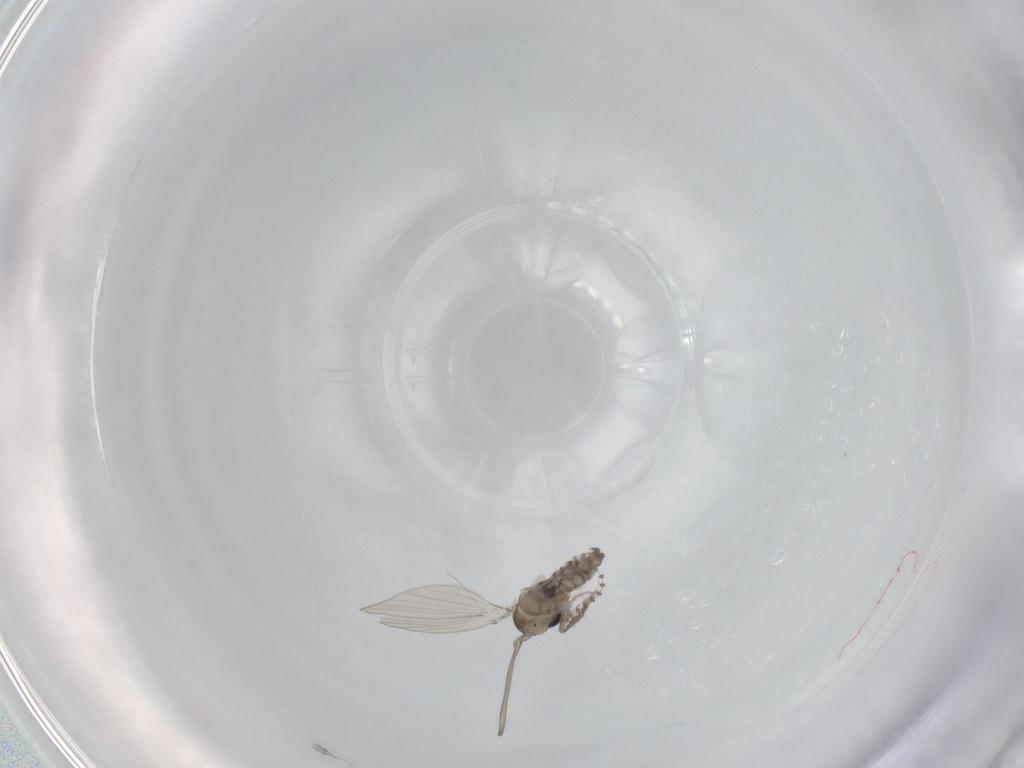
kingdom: Animalia
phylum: Arthropoda
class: Insecta
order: Diptera
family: Psychodidae
